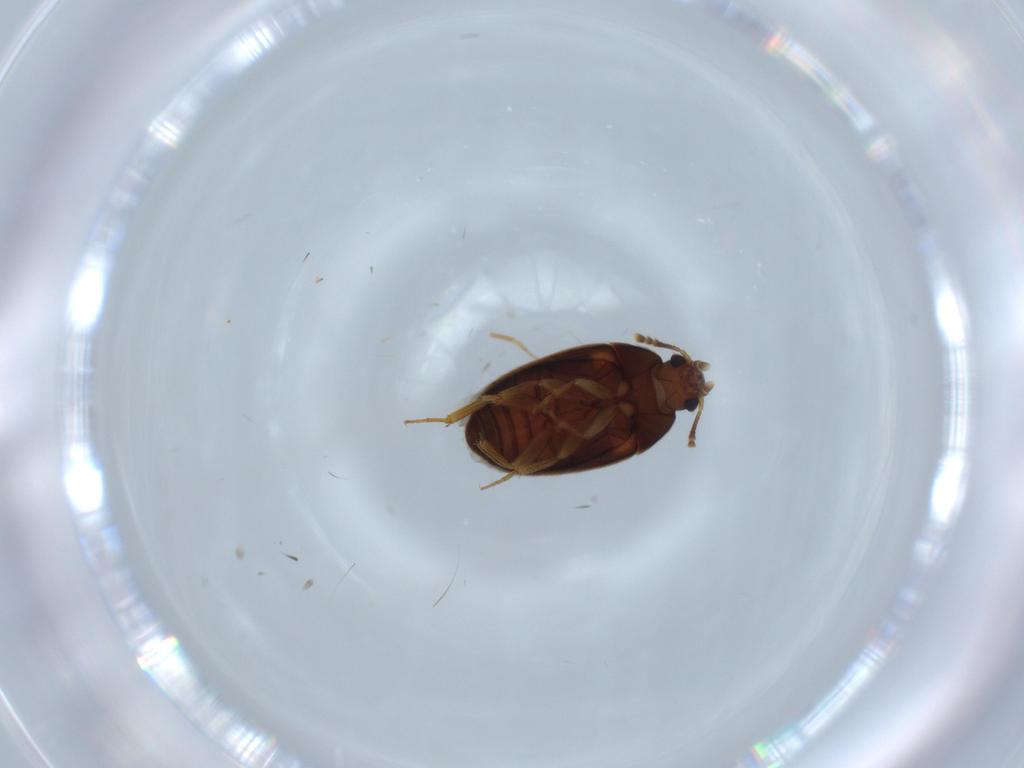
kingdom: Animalia
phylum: Arthropoda
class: Insecta
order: Coleoptera
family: Mycetophagidae
